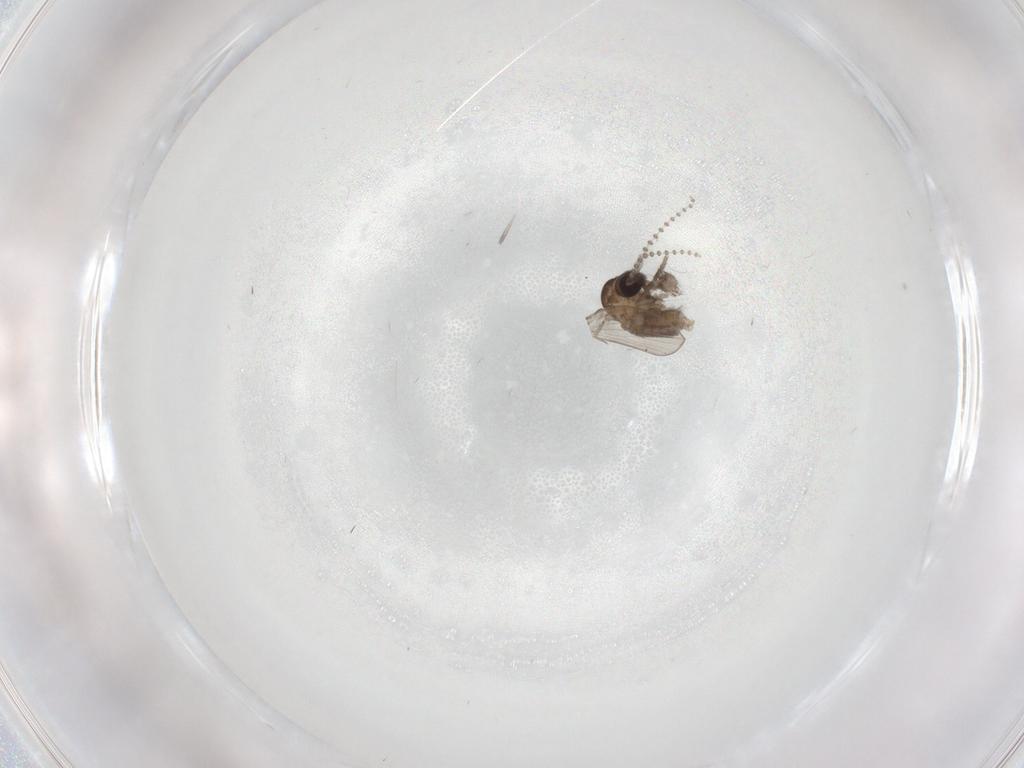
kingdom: Animalia
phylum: Arthropoda
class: Insecta
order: Diptera
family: Psychodidae
